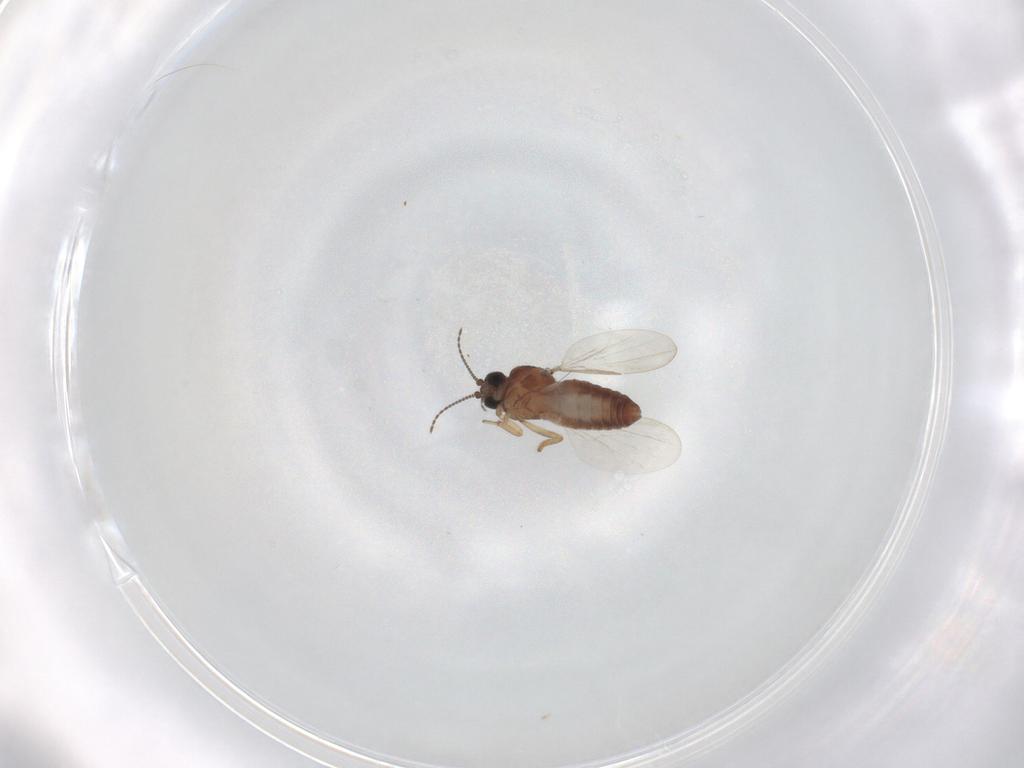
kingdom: Animalia
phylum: Arthropoda
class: Insecta
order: Diptera
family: Ceratopogonidae
